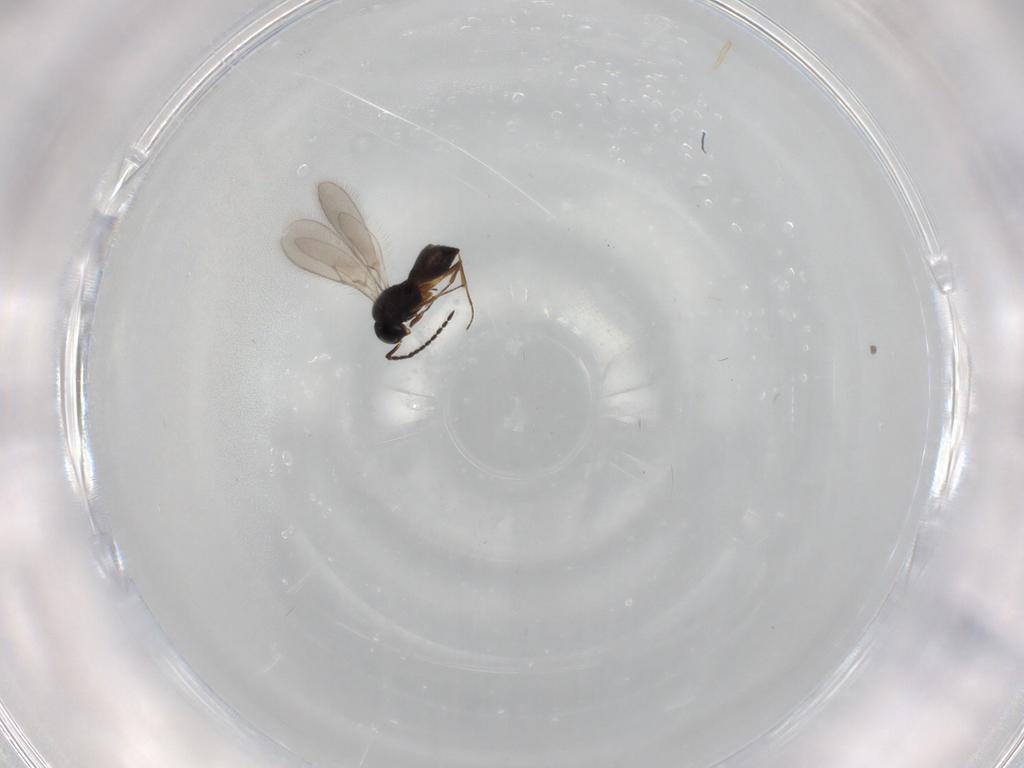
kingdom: Animalia
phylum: Arthropoda
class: Insecta
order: Hymenoptera
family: Scelionidae
